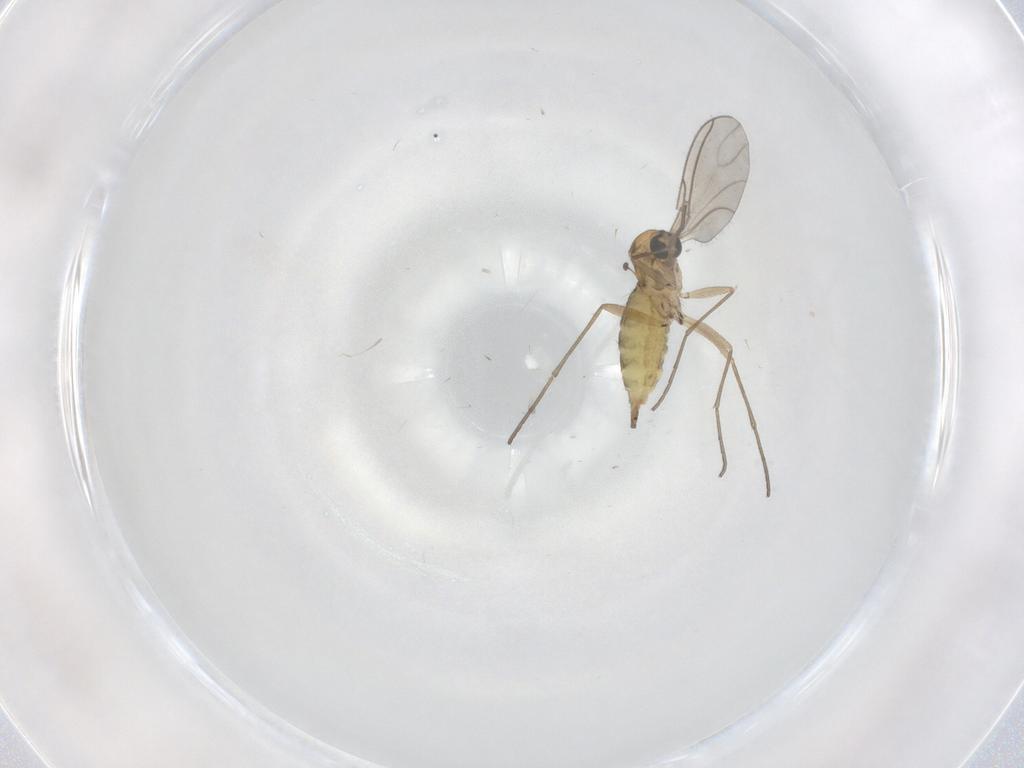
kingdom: Animalia
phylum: Arthropoda
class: Insecta
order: Diptera
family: Sciaridae
